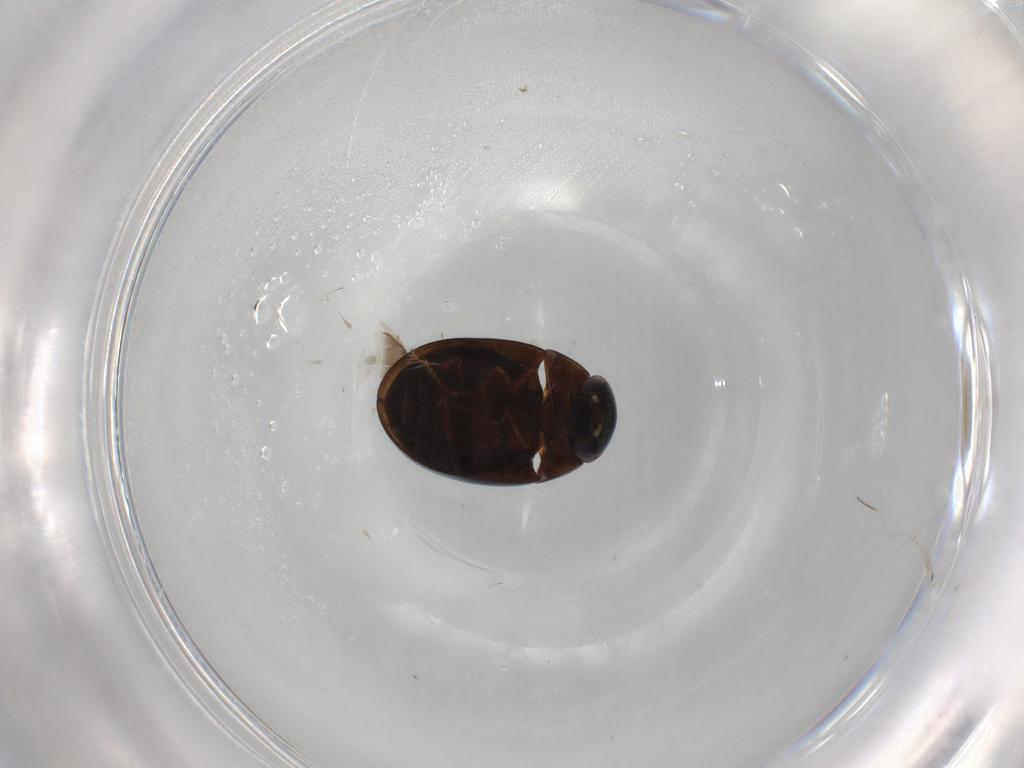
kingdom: Animalia
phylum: Arthropoda
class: Insecta
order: Coleoptera
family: Hydrophilidae
